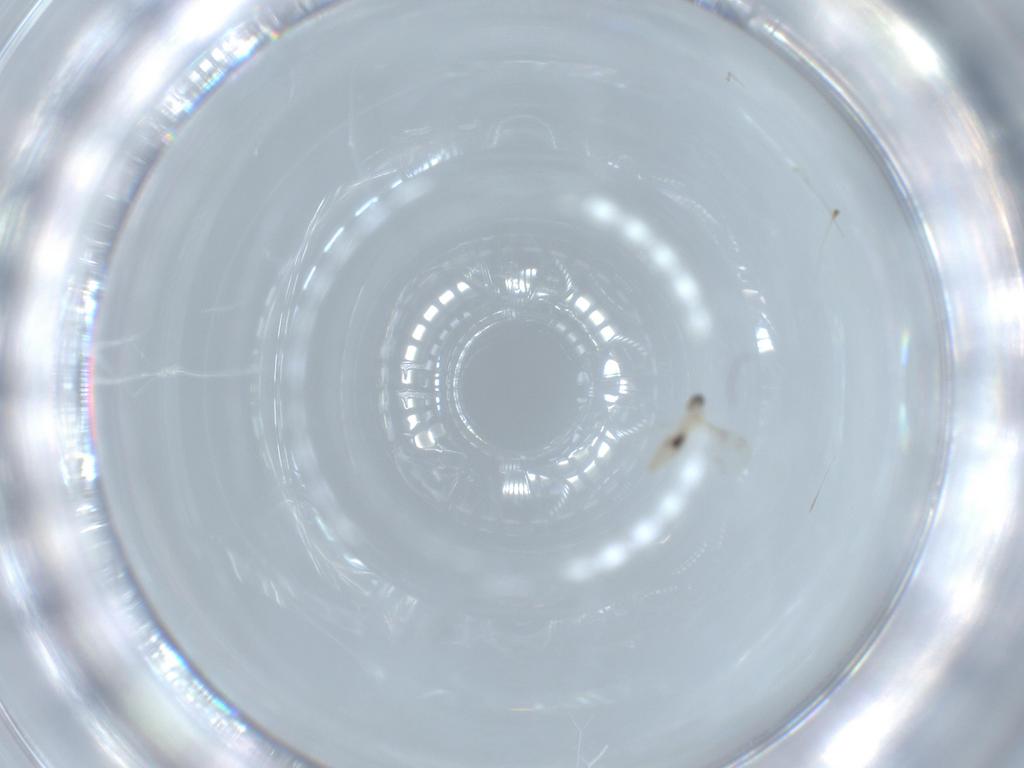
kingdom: Animalia
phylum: Arthropoda
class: Insecta
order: Diptera
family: Cecidomyiidae
